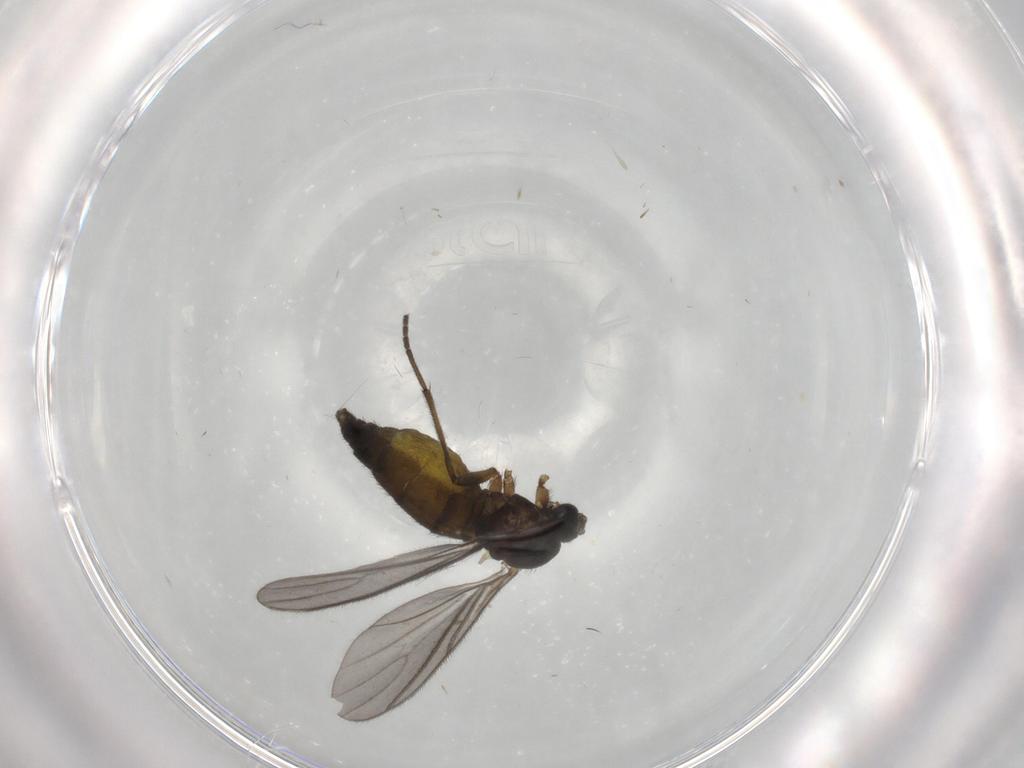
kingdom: Animalia
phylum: Arthropoda
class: Insecta
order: Diptera
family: Sciaridae
